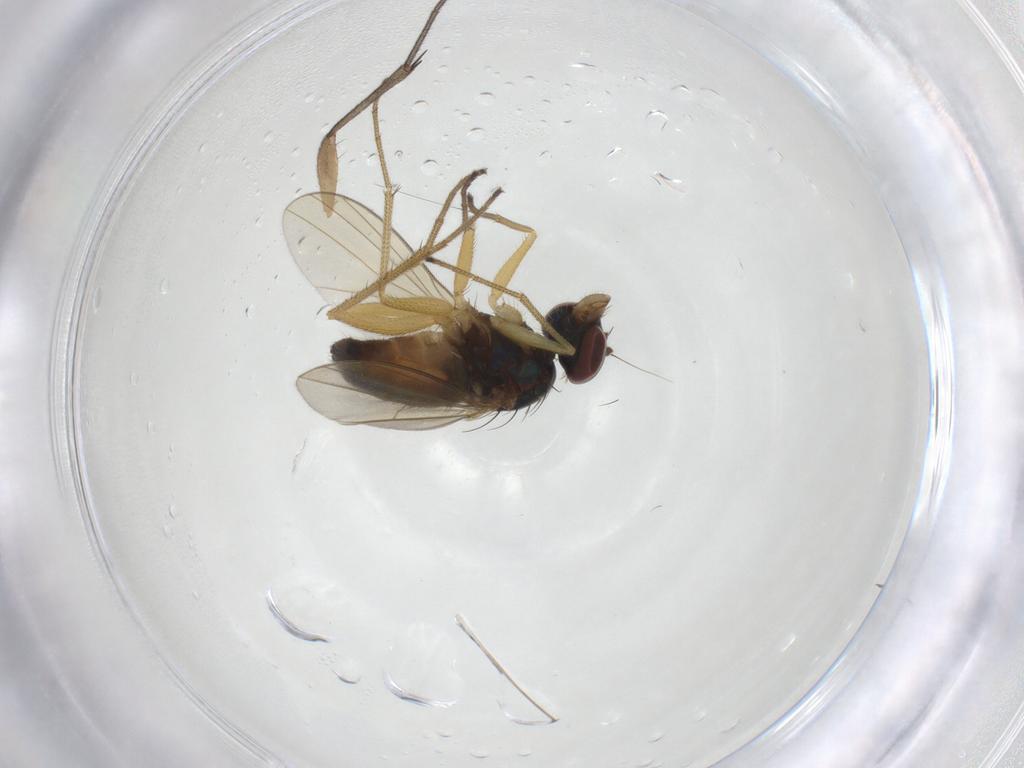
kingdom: Animalia
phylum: Arthropoda
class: Insecta
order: Diptera
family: Dolichopodidae
